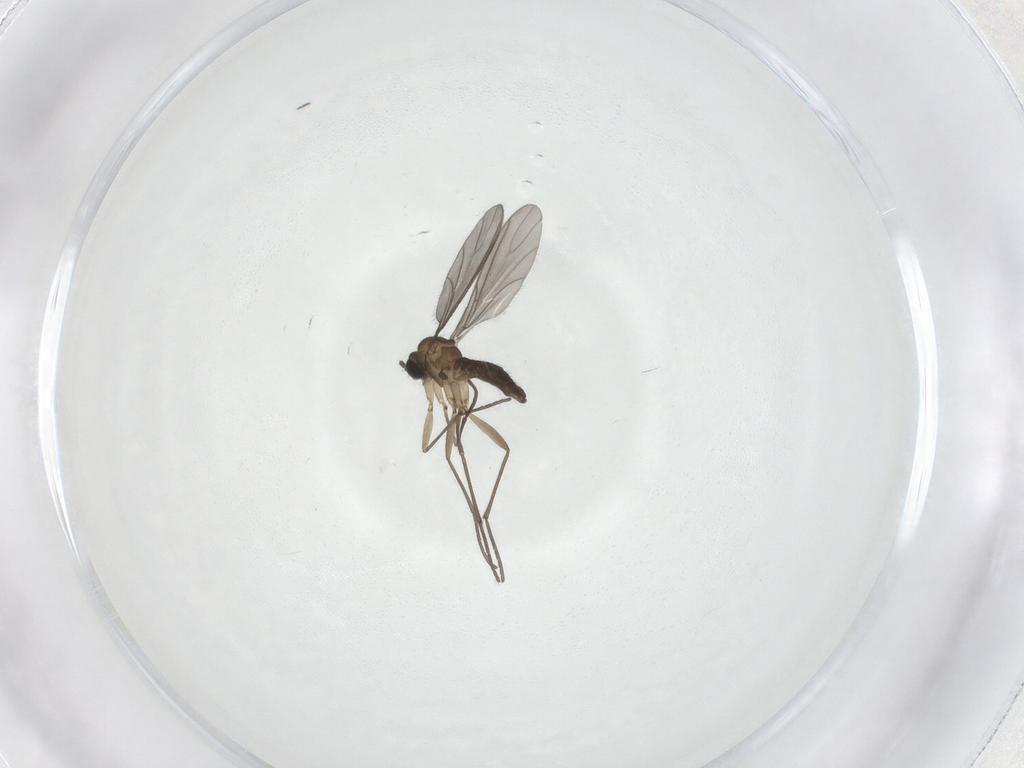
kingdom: Animalia
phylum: Arthropoda
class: Insecta
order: Diptera
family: Sciaridae
